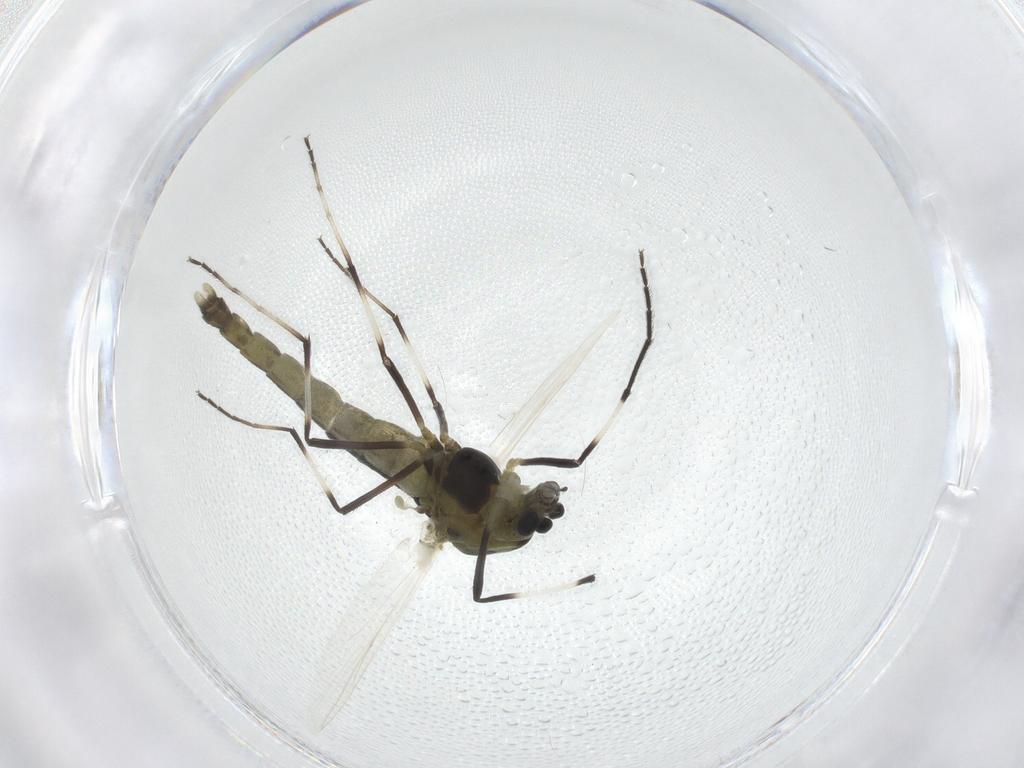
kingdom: Animalia
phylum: Arthropoda
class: Insecta
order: Diptera
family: Chironomidae
